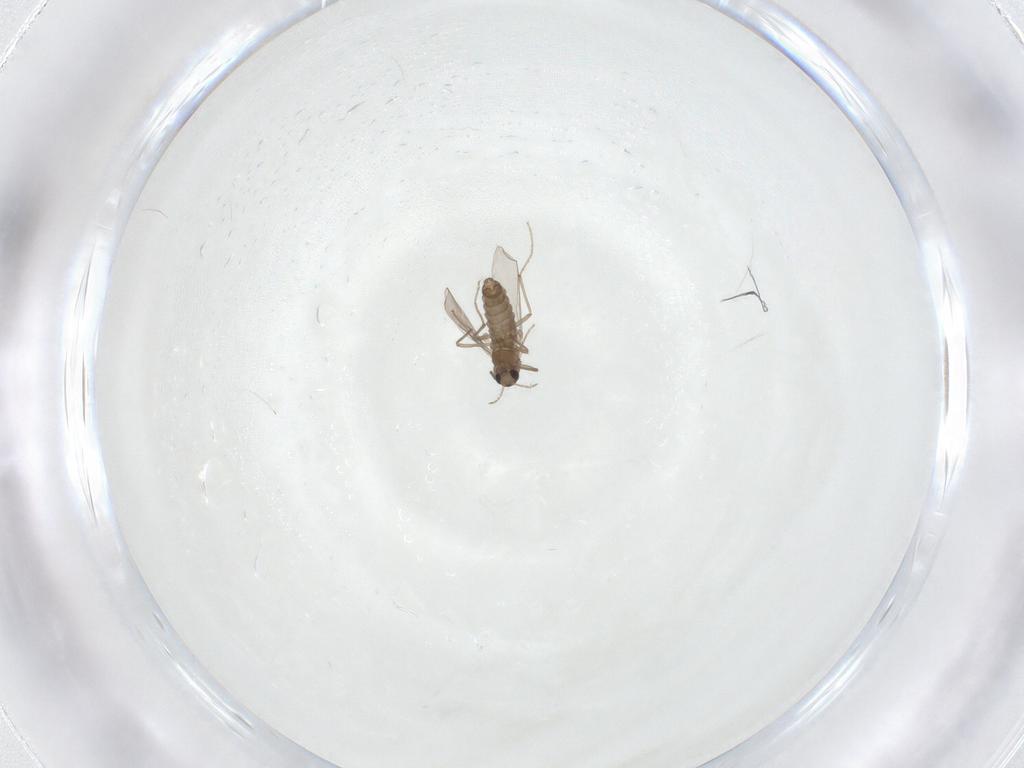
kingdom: Animalia
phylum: Arthropoda
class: Insecta
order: Diptera
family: Chironomidae
